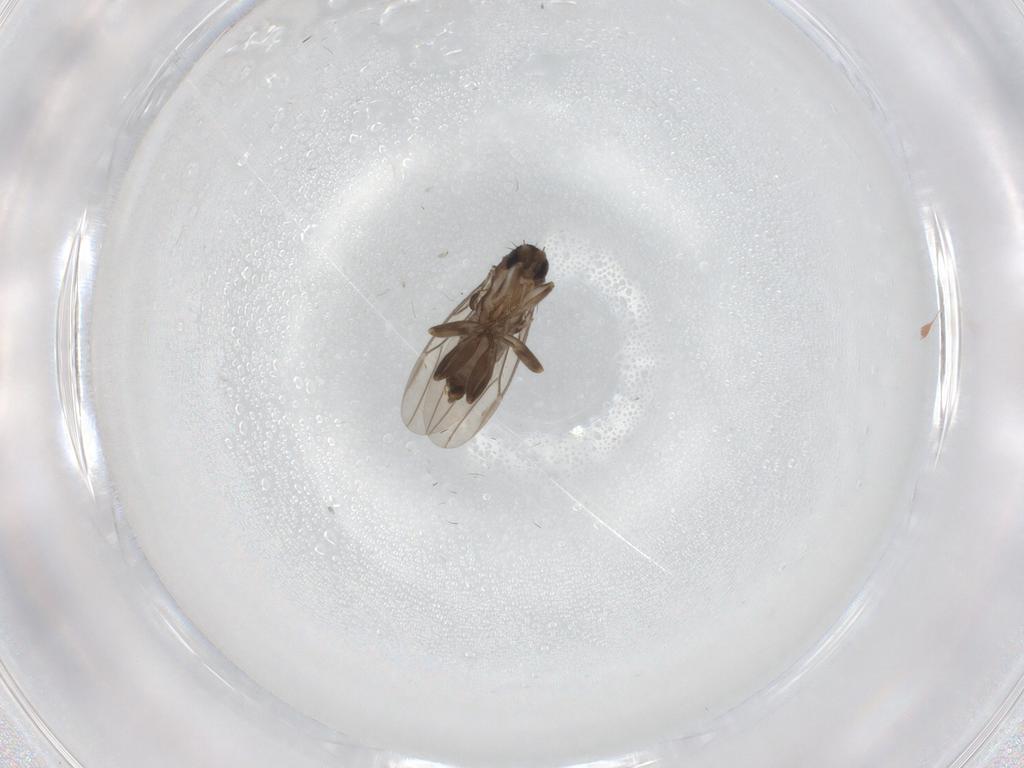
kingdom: Animalia
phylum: Arthropoda
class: Insecta
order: Diptera
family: Phoridae
